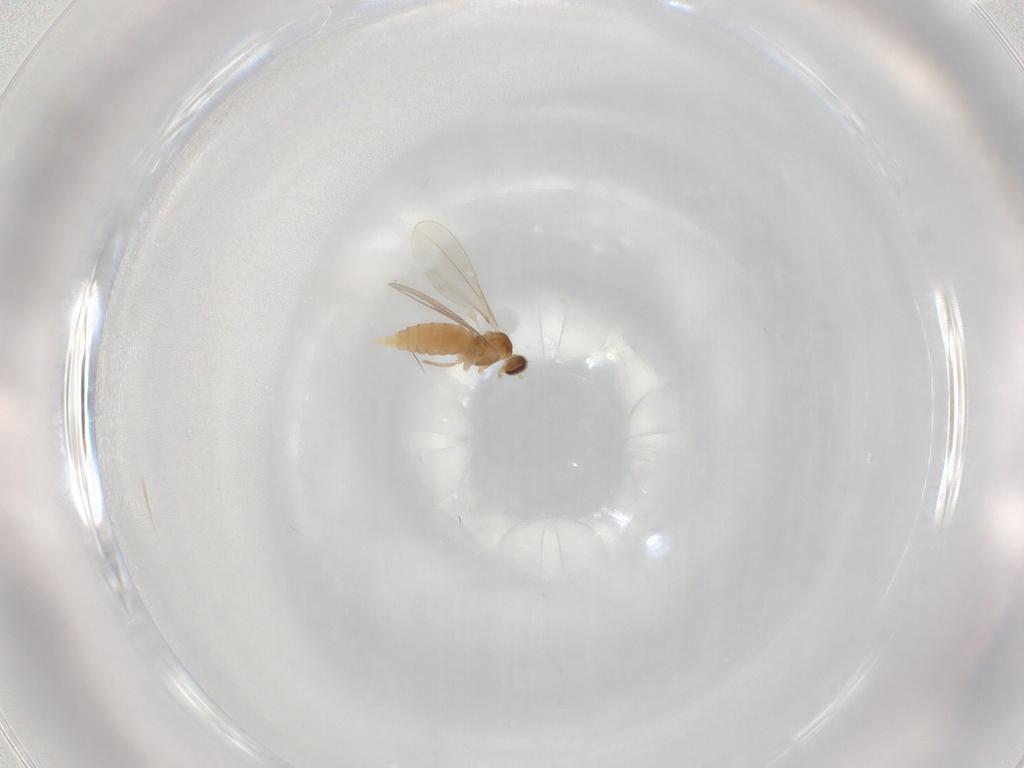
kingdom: Animalia
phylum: Arthropoda
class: Insecta
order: Diptera
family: Cecidomyiidae
